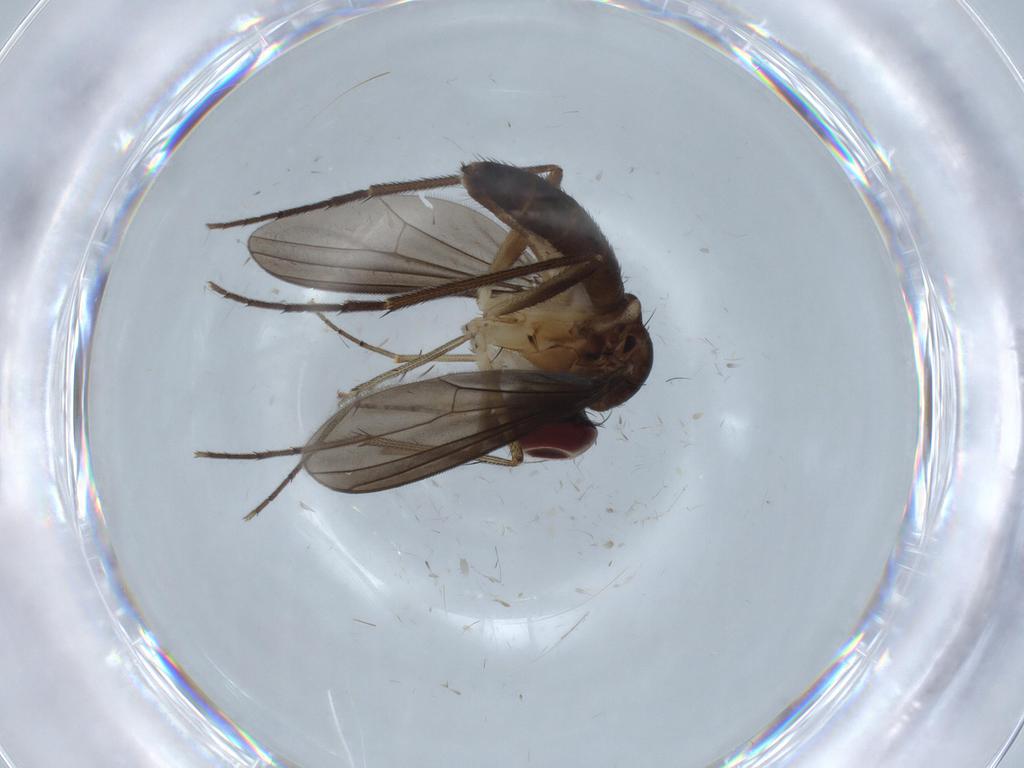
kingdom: Animalia
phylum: Arthropoda
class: Insecta
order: Diptera
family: Dolichopodidae
